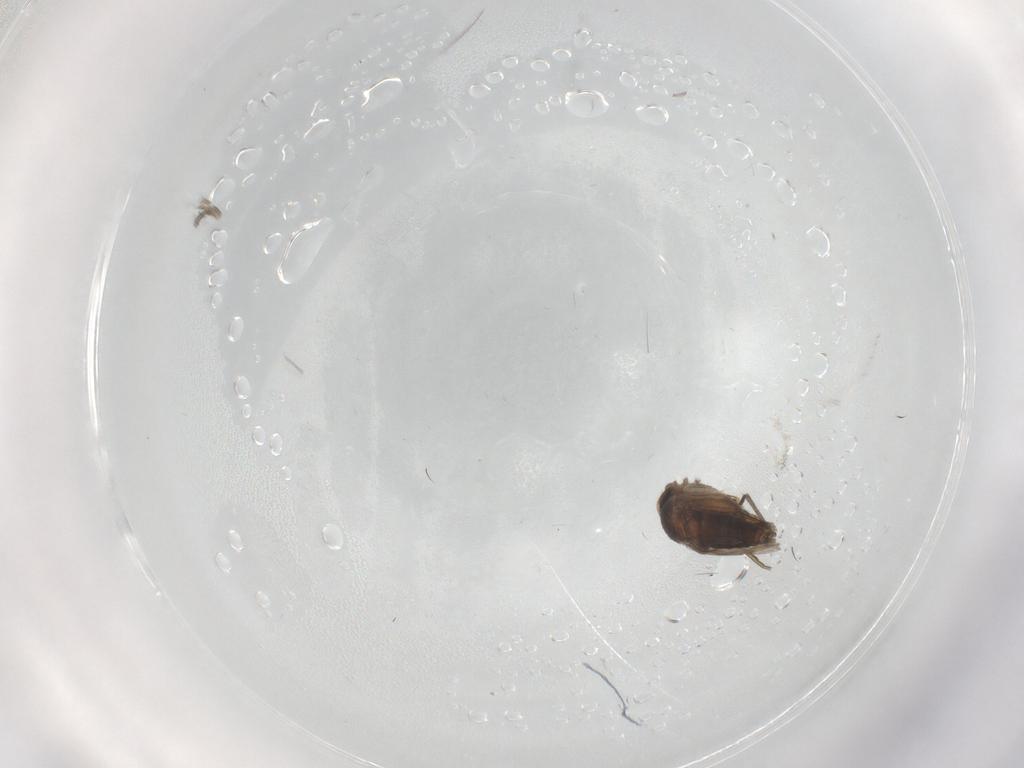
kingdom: Animalia
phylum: Arthropoda
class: Insecta
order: Diptera
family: Phoridae
